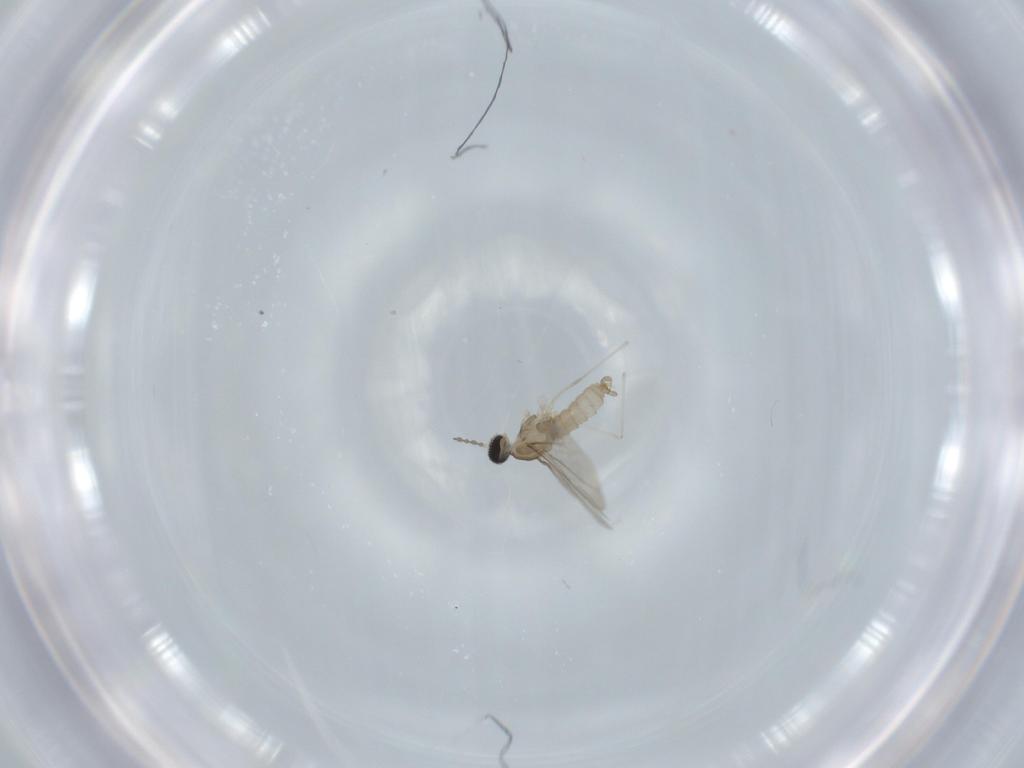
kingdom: Animalia
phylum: Arthropoda
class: Insecta
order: Diptera
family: Cecidomyiidae
